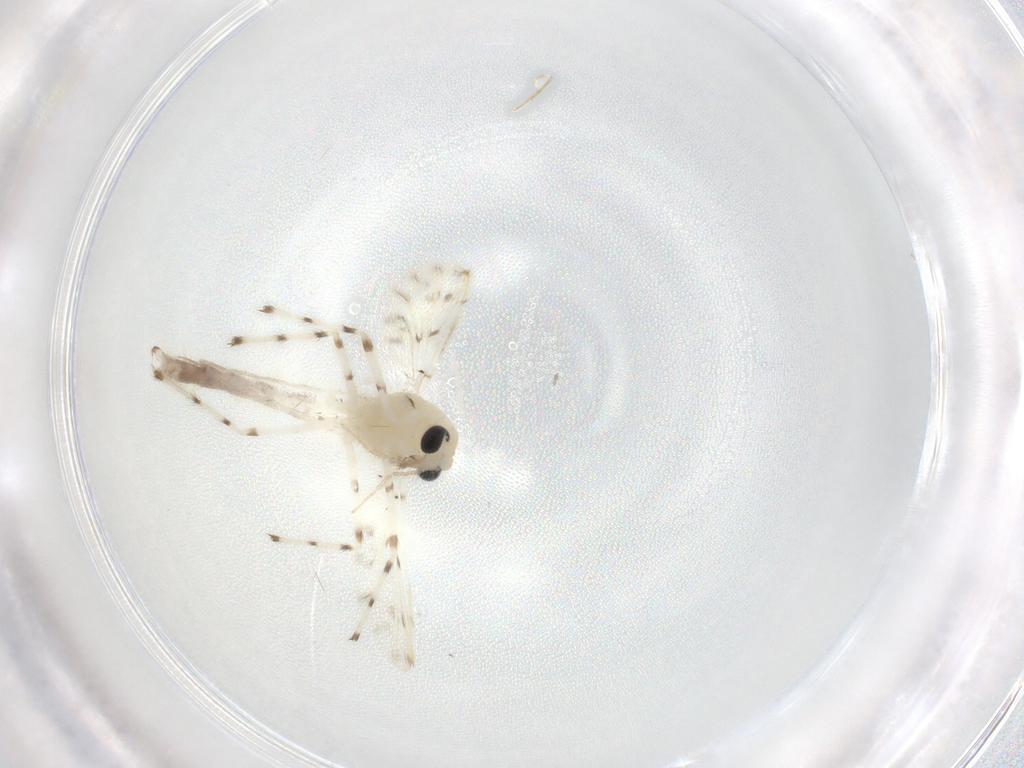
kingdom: Animalia
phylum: Arthropoda
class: Insecta
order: Diptera
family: Chironomidae
